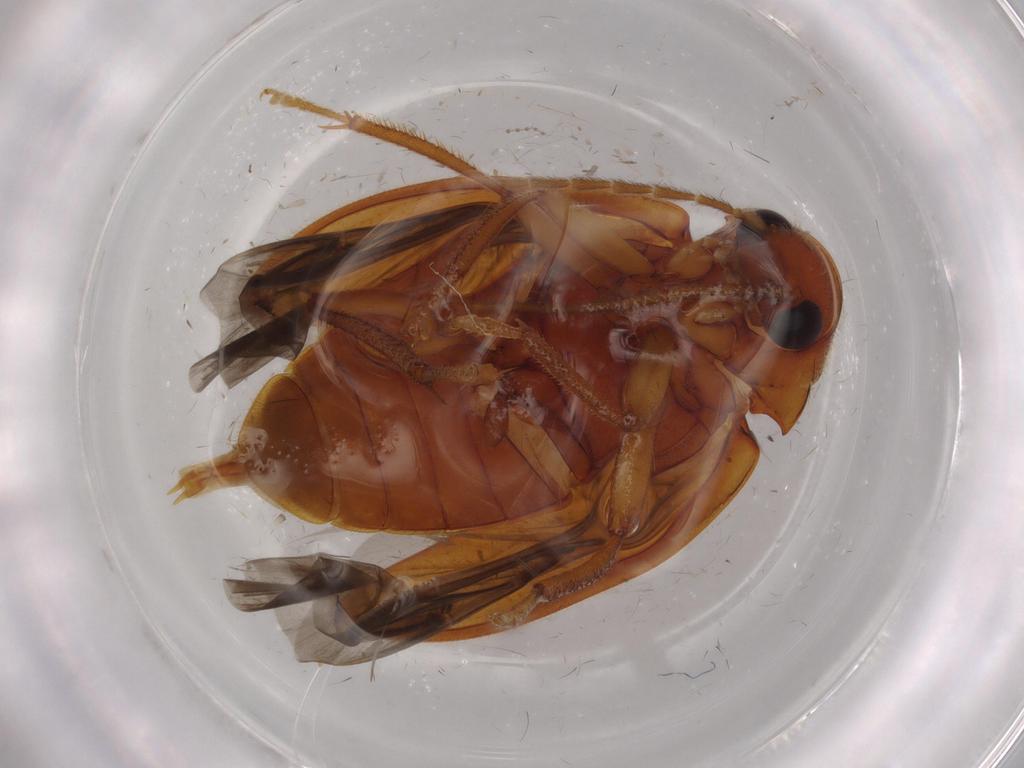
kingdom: Animalia
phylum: Arthropoda
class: Insecta
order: Coleoptera
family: Ptilodactylidae
